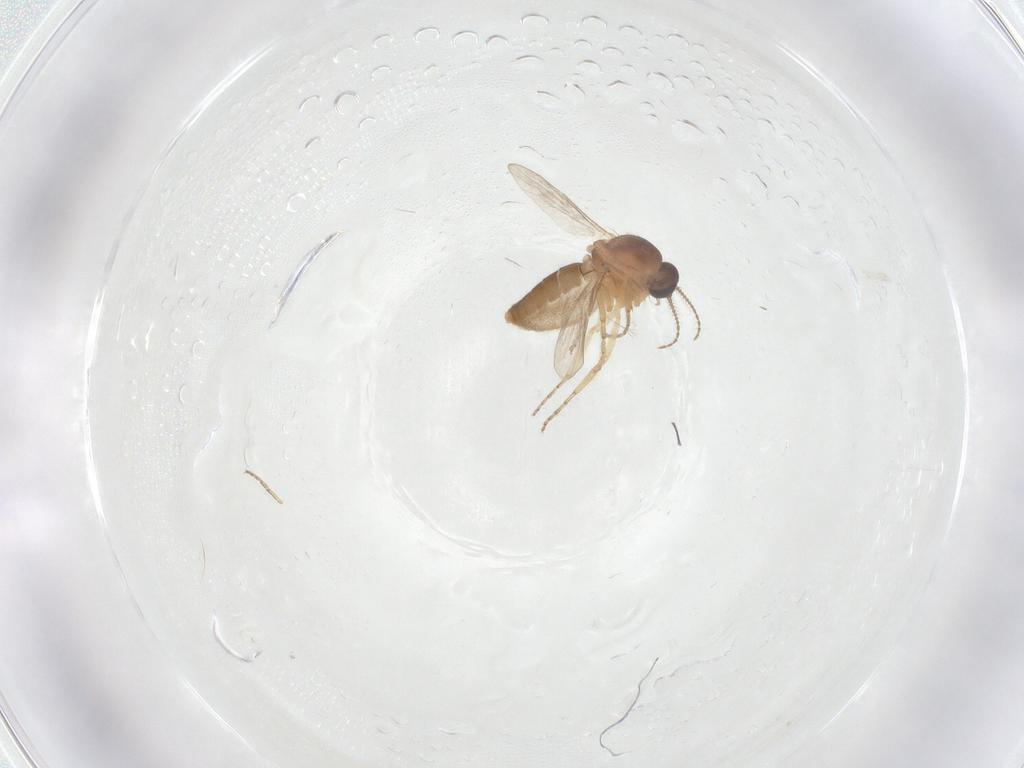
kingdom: Animalia
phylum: Arthropoda
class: Insecta
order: Diptera
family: Ceratopogonidae
